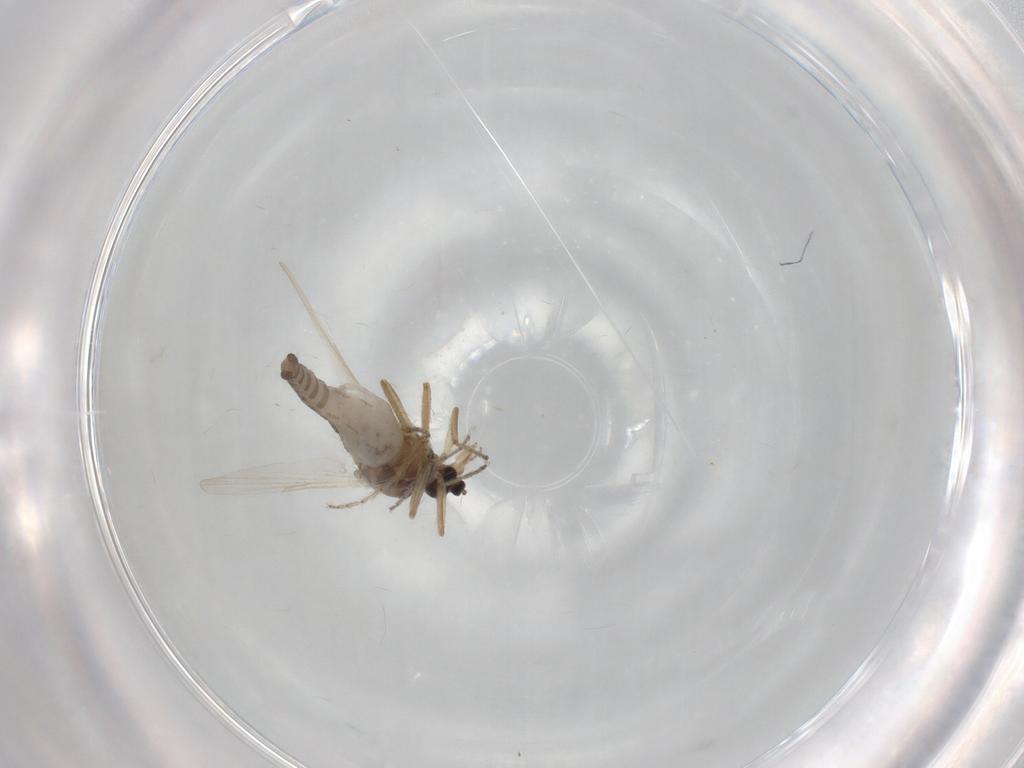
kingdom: Animalia
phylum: Arthropoda
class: Insecta
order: Diptera
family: Ceratopogonidae
